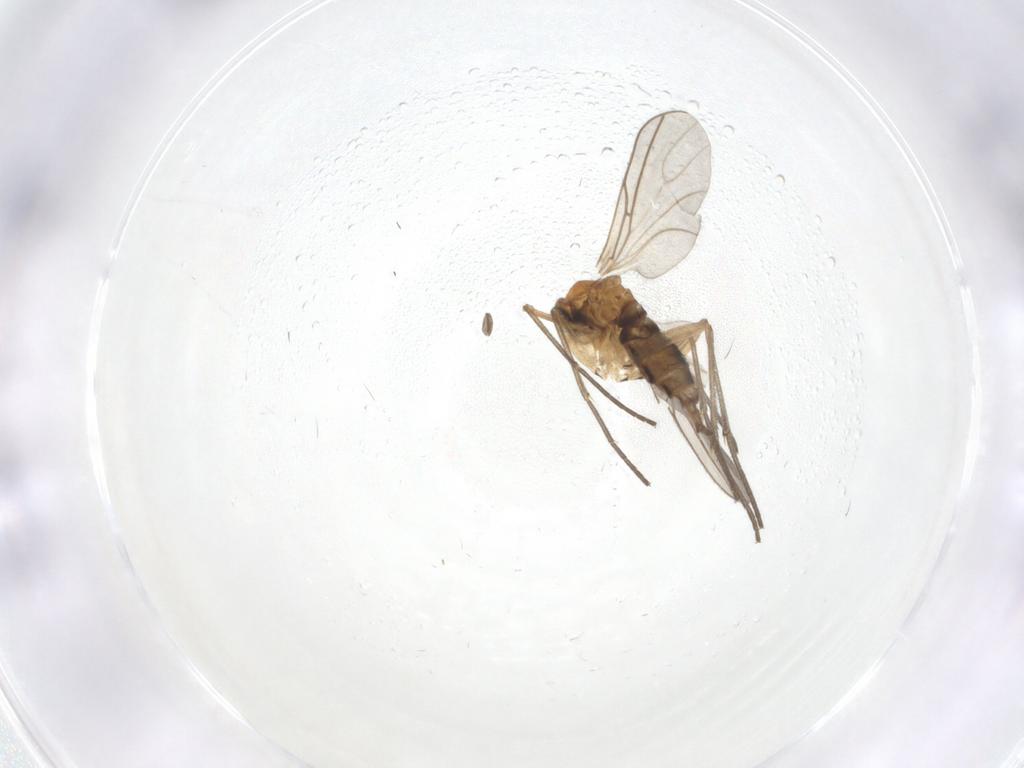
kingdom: Animalia
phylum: Arthropoda
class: Insecta
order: Diptera
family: Sciaridae
